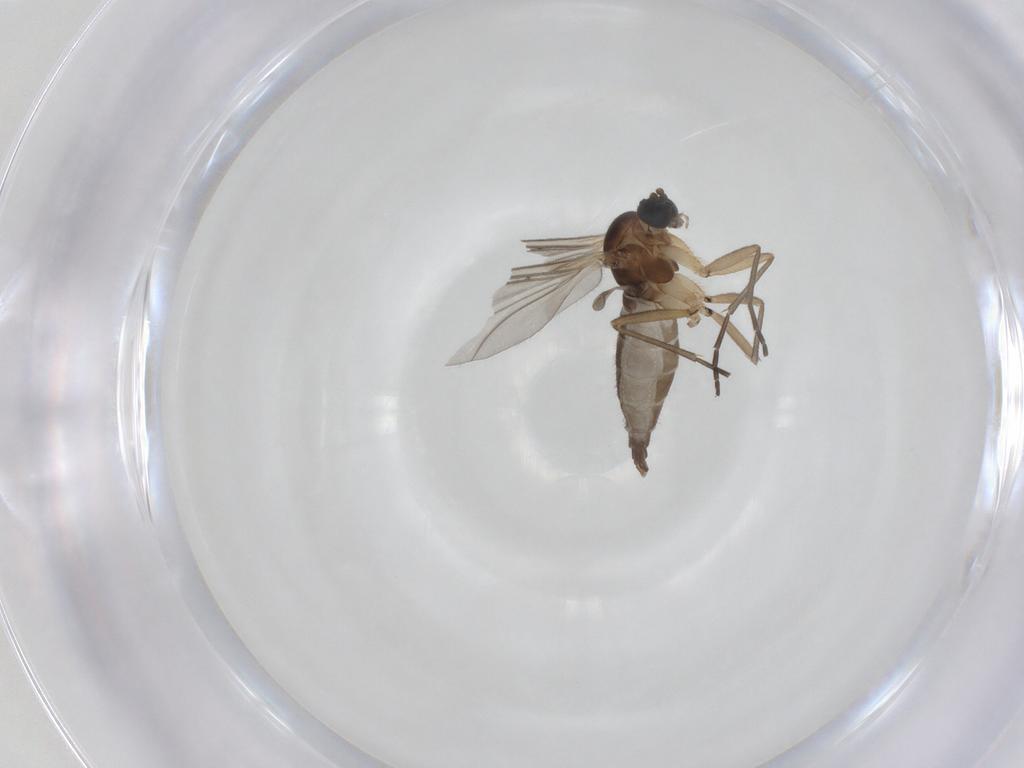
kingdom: Animalia
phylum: Arthropoda
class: Insecta
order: Diptera
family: Sciaridae
